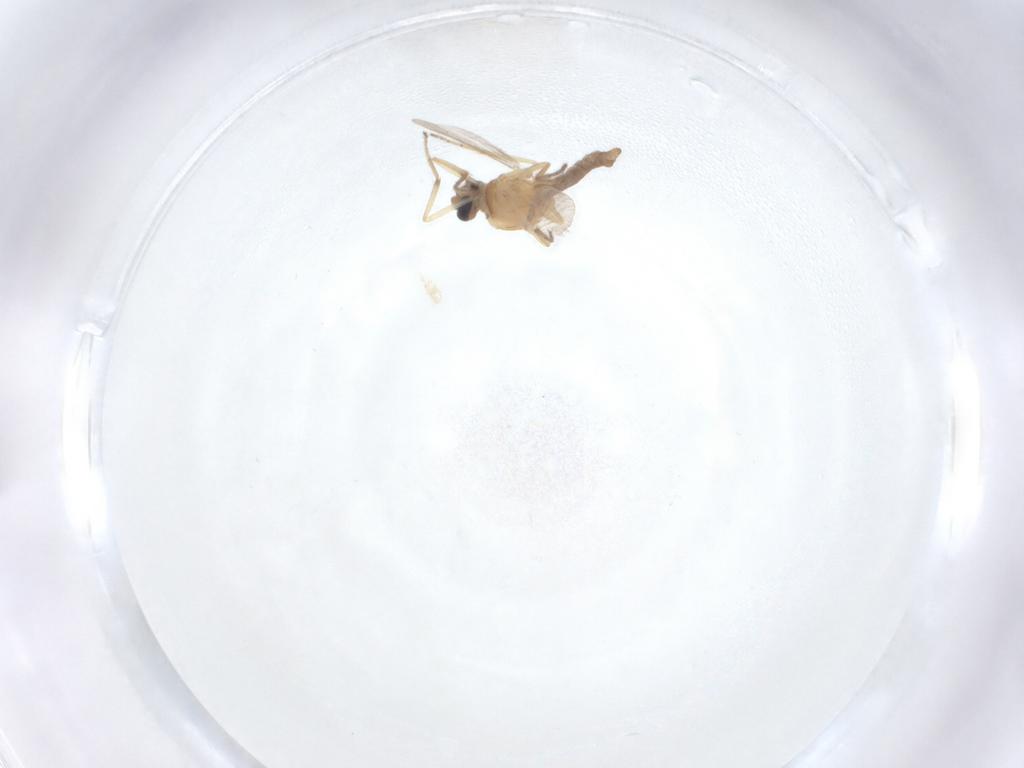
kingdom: Animalia
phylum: Arthropoda
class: Insecta
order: Diptera
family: Ceratopogonidae
